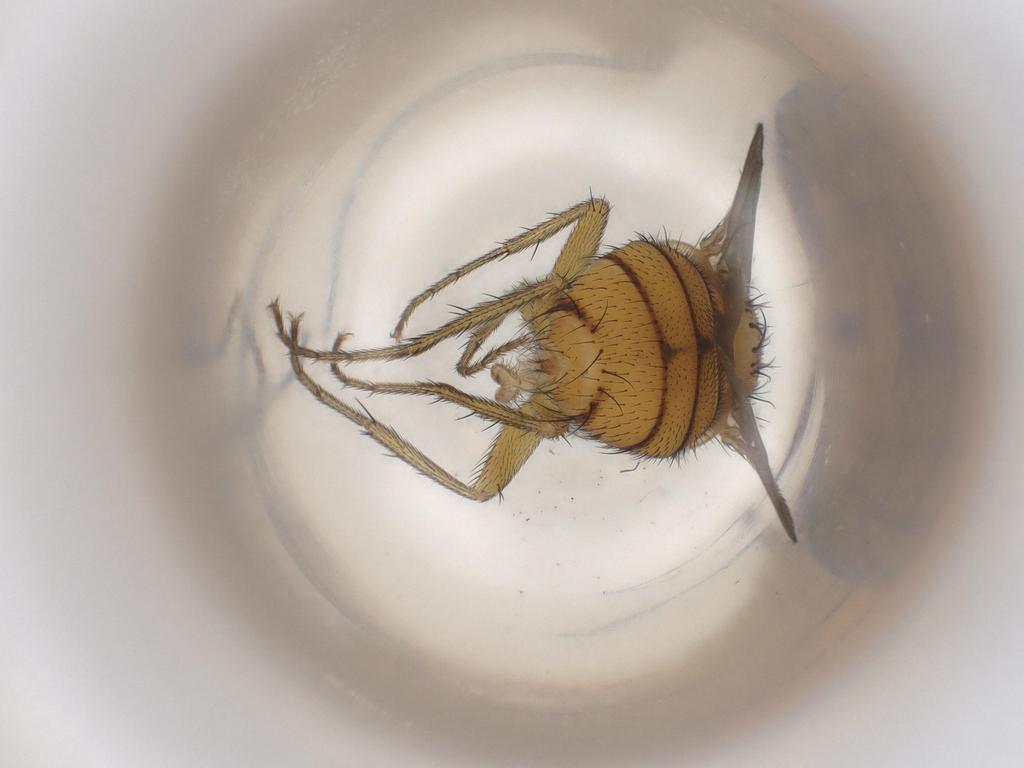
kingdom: Animalia
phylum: Arthropoda
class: Insecta
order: Diptera
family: Calliphoridae
